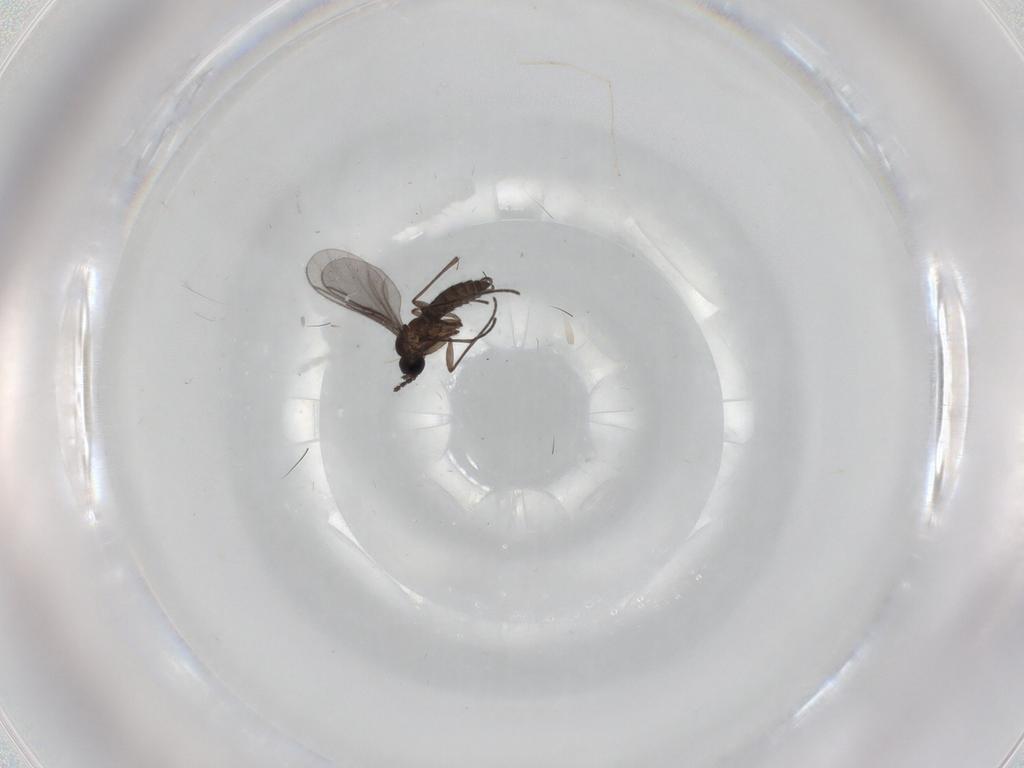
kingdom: Animalia
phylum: Arthropoda
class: Insecta
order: Diptera
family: Cecidomyiidae
